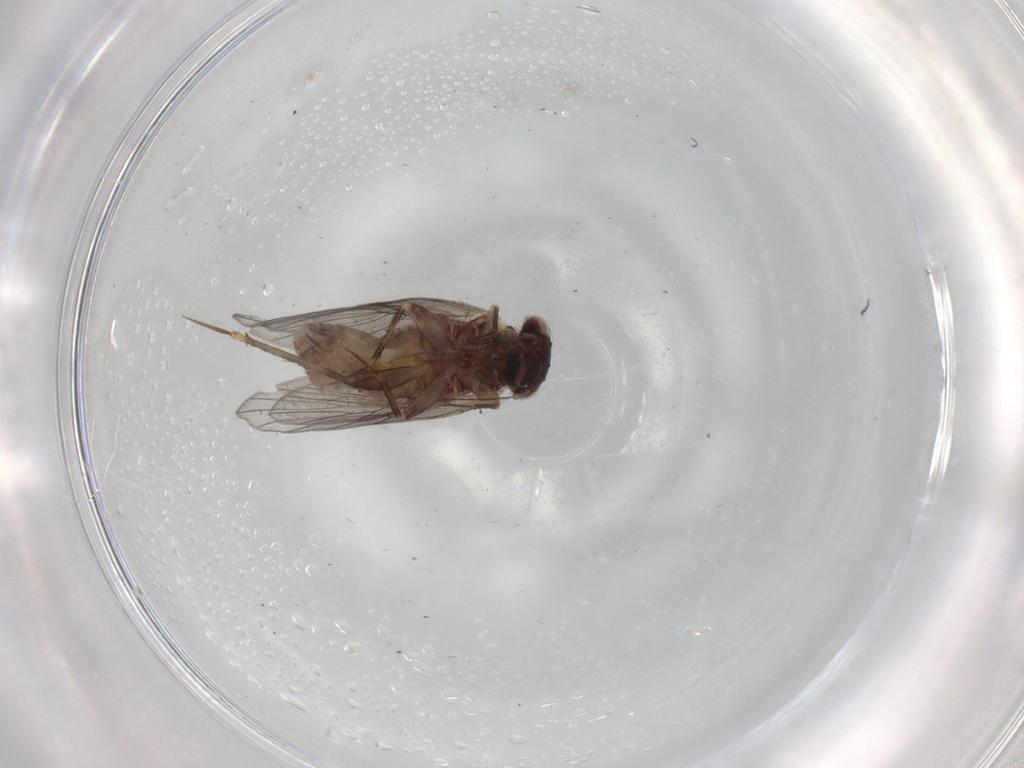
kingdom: Animalia
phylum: Arthropoda
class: Insecta
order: Psocodea
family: Lepidopsocidae
